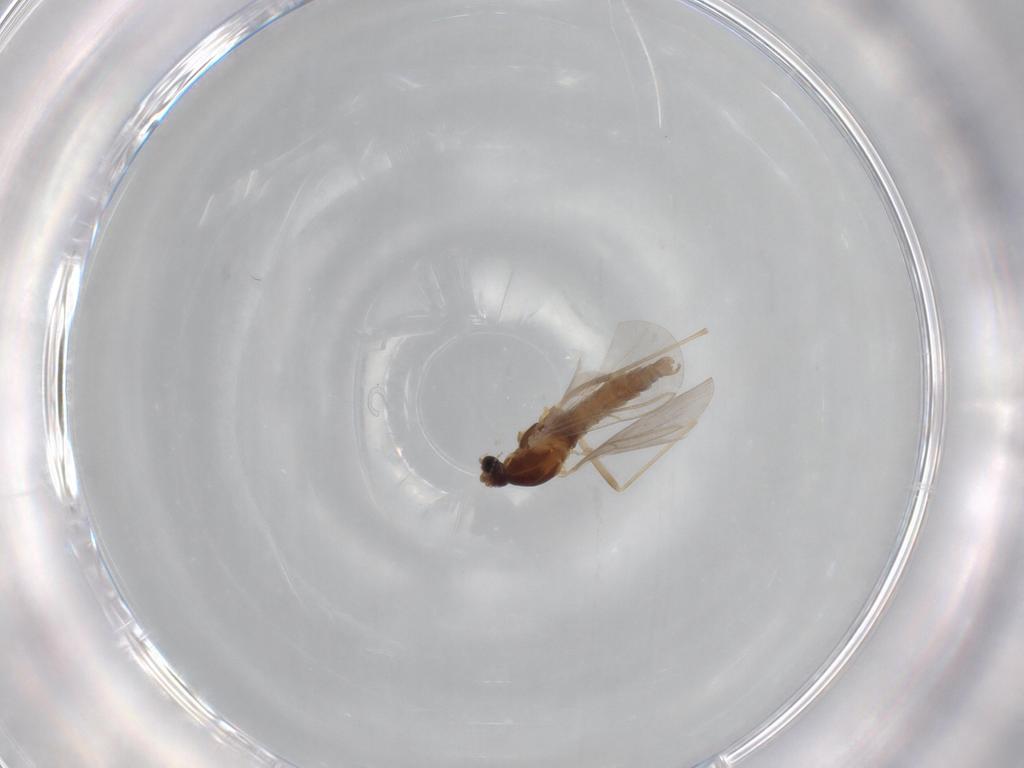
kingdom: Animalia
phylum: Arthropoda
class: Insecta
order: Diptera
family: Cecidomyiidae
